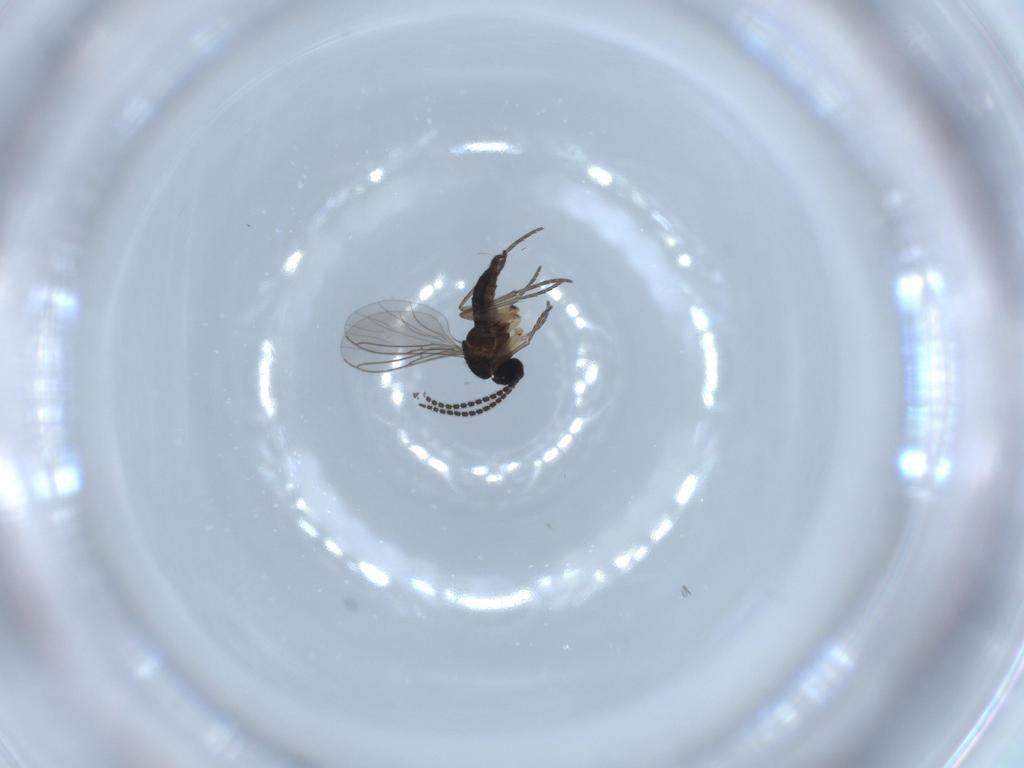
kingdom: Animalia
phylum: Arthropoda
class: Insecta
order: Diptera
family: Sciaridae
